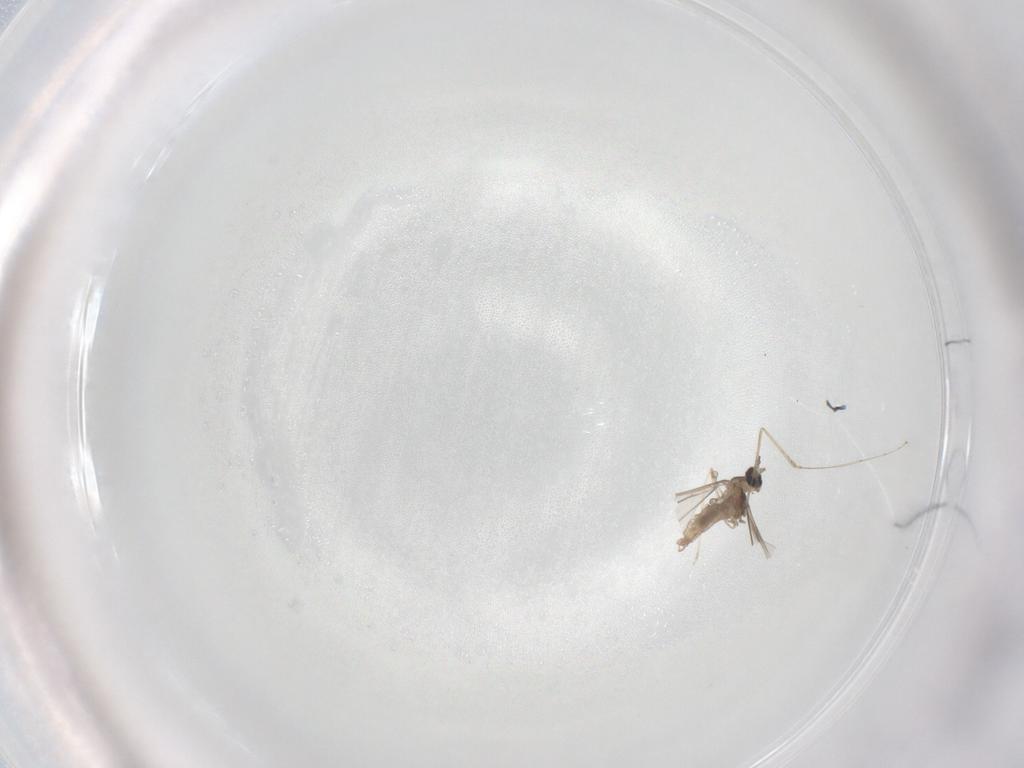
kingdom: Animalia
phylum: Arthropoda
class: Insecta
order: Diptera
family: Cecidomyiidae
